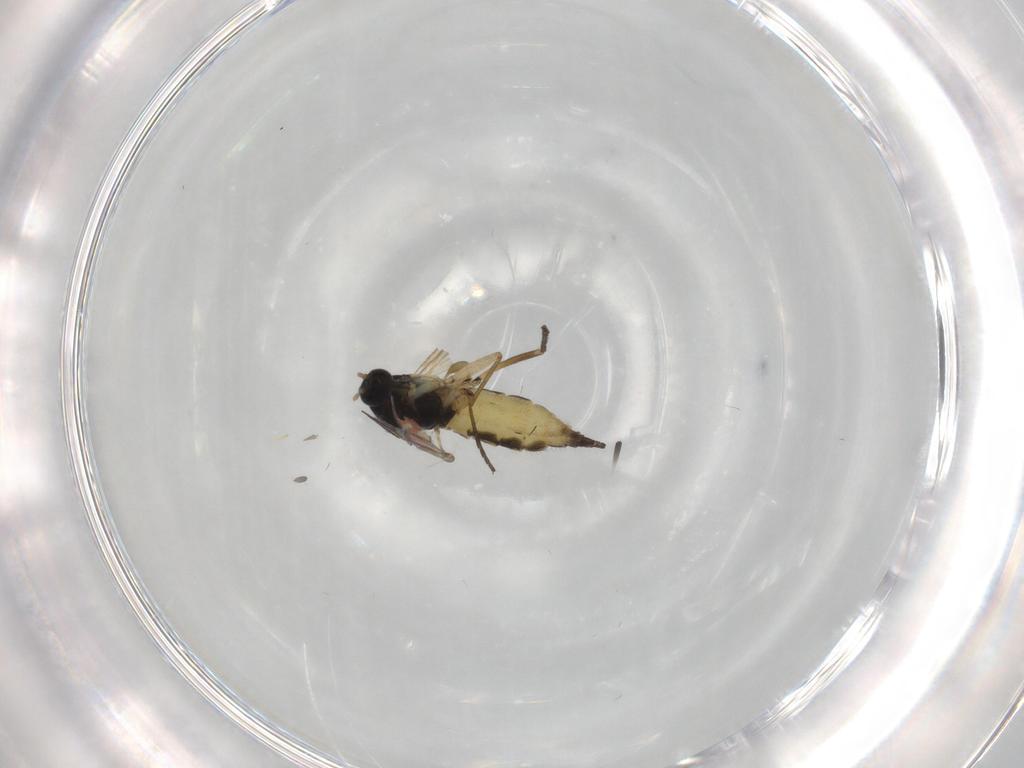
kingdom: Animalia
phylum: Arthropoda
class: Insecta
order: Diptera
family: Sciaridae
